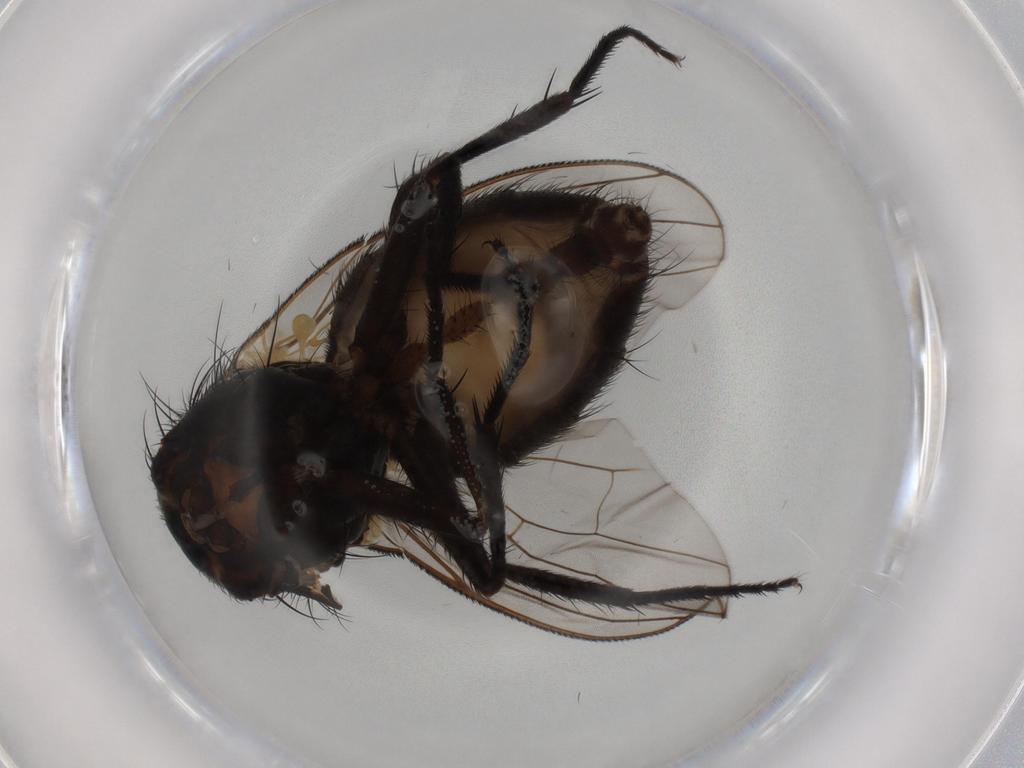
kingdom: Animalia
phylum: Arthropoda
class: Insecta
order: Diptera
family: Hybotidae
